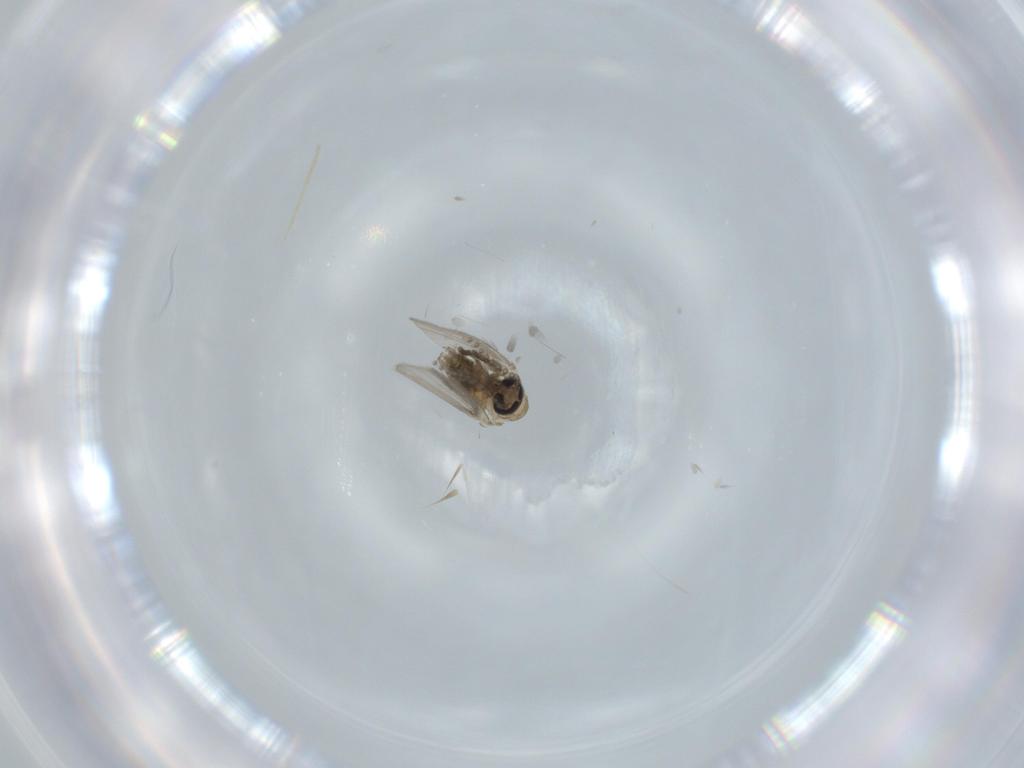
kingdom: Animalia
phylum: Arthropoda
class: Insecta
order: Diptera
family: Psychodidae
